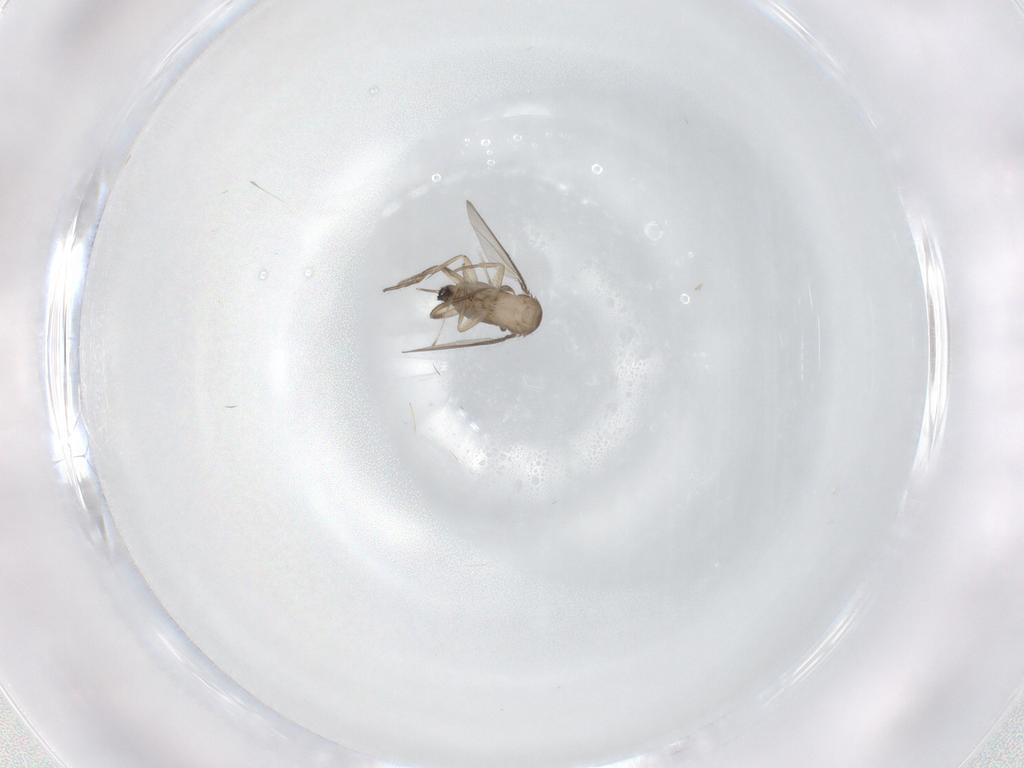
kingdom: Animalia
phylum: Arthropoda
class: Insecta
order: Diptera
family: Phoridae
